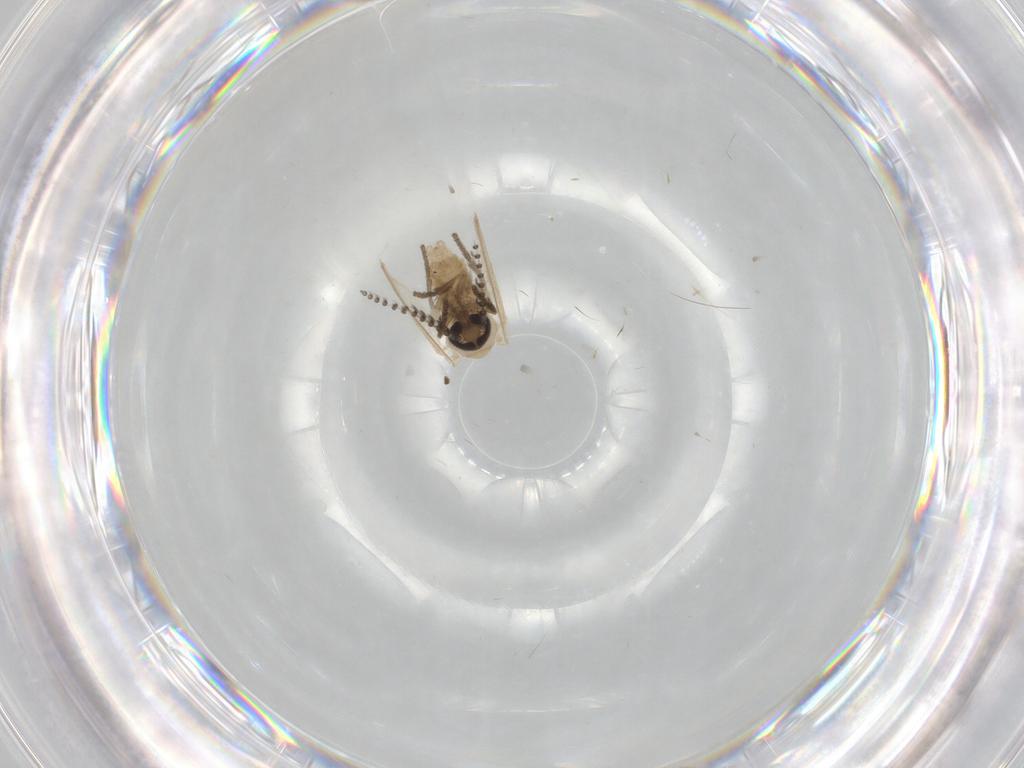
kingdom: Animalia
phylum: Arthropoda
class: Insecta
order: Diptera
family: Psychodidae
